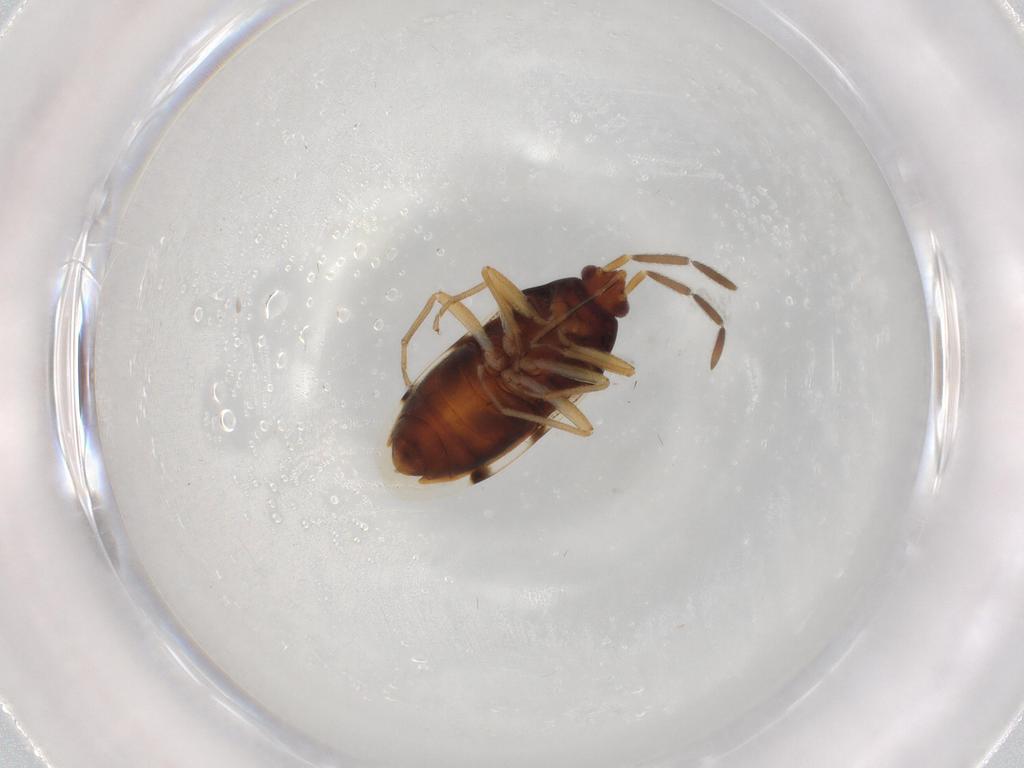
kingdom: Animalia
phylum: Arthropoda
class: Insecta
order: Hemiptera
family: Rhyparochromidae
